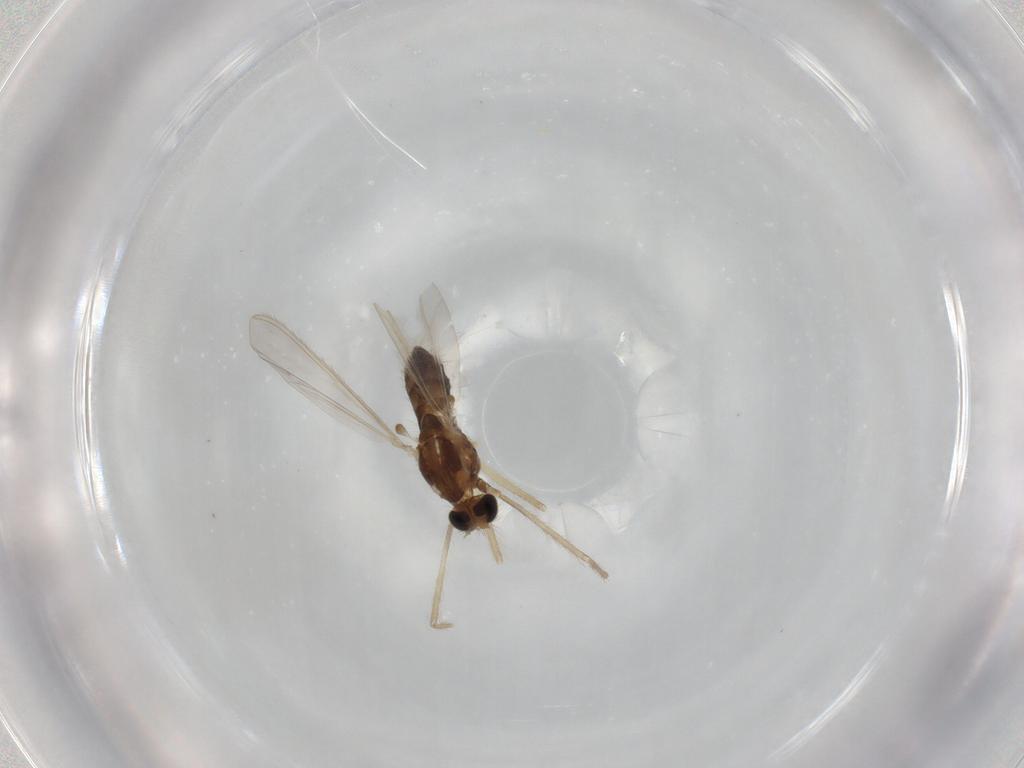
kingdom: Animalia
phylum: Arthropoda
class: Insecta
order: Diptera
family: Chironomidae
